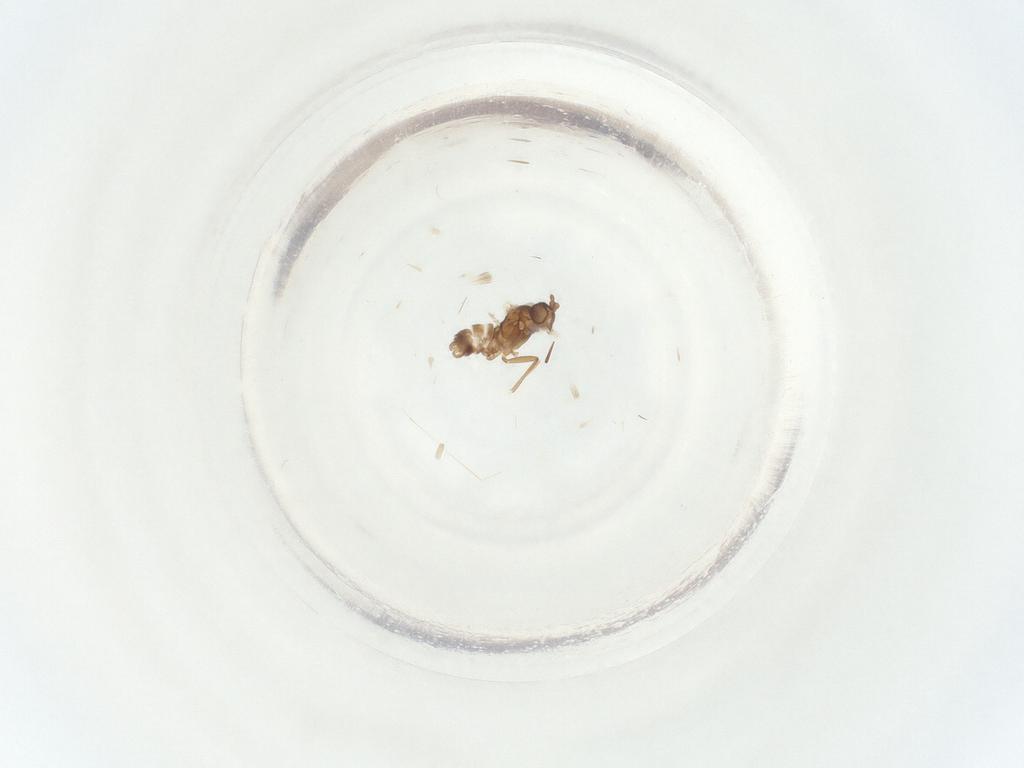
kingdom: Animalia
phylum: Arthropoda
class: Insecta
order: Diptera
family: Sciaridae
